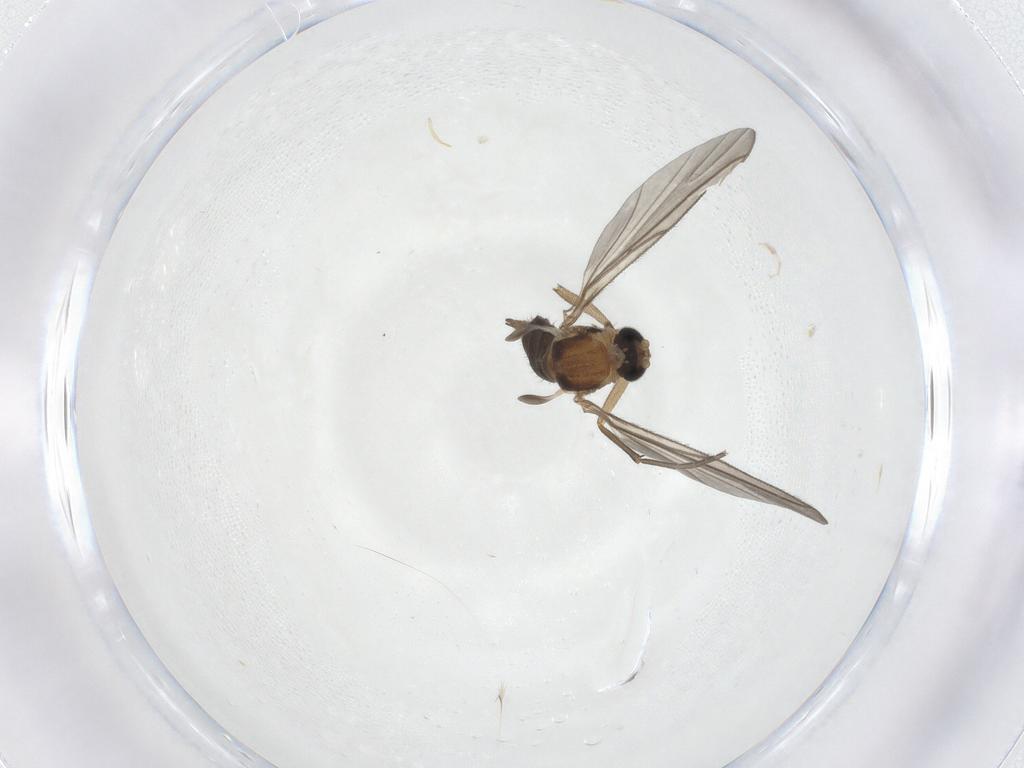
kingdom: Animalia
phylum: Arthropoda
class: Insecta
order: Diptera
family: Sciaridae
